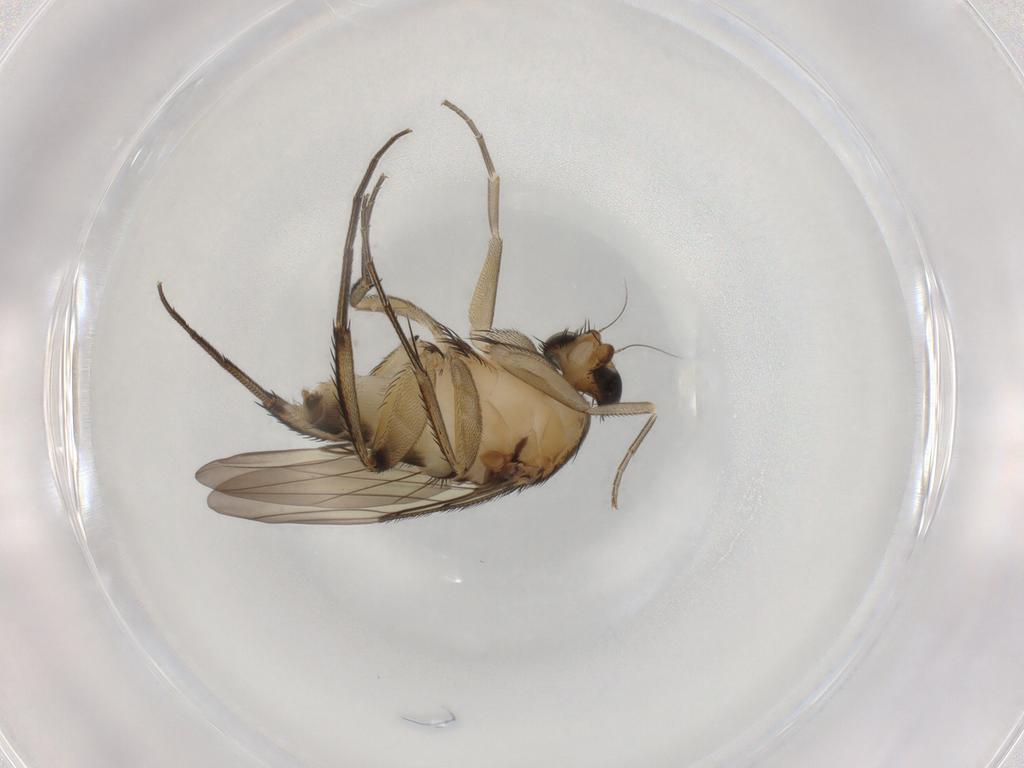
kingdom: Animalia
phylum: Arthropoda
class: Insecta
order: Diptera
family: Phoridae
